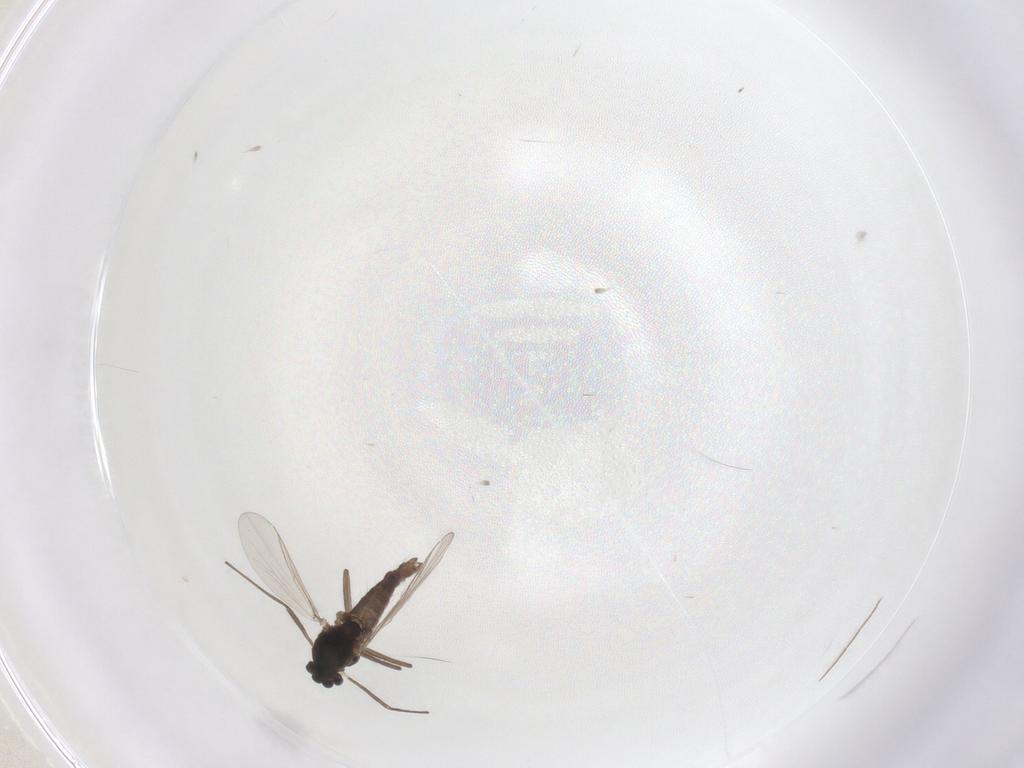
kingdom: Animalia
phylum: Arthropoda
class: Insecta
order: Diptera
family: Chironomidae
